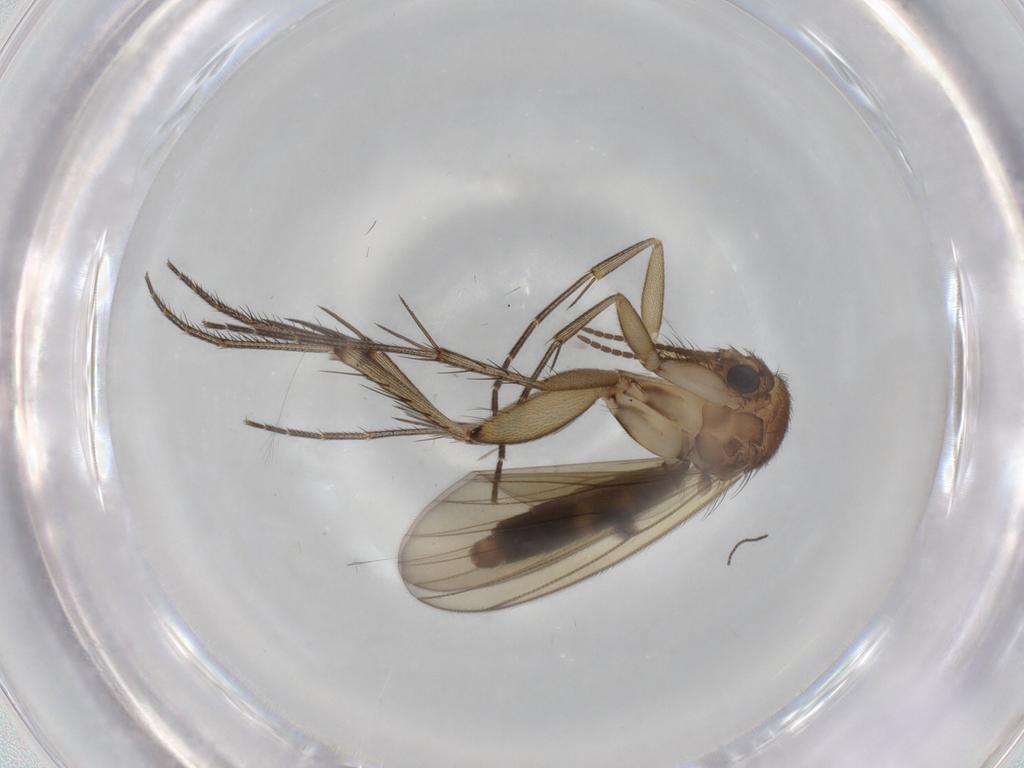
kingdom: Animalia
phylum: Arthropoda
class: Insecta
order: Diptera
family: Mycetophilidae
